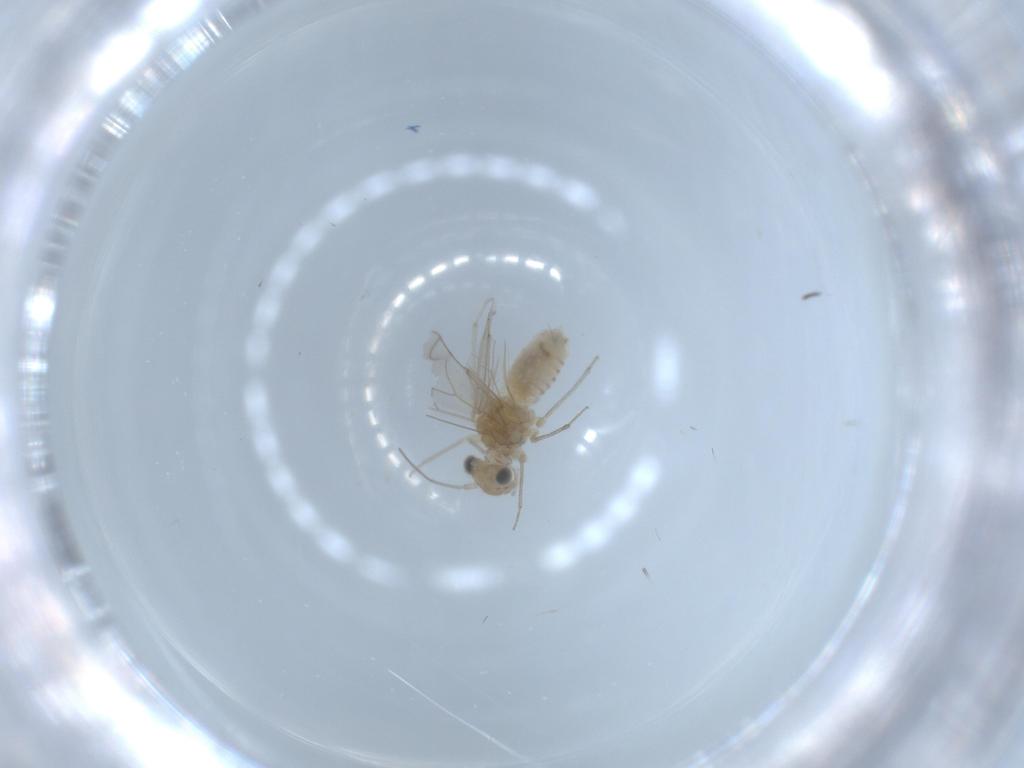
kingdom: Animalia
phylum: Arthropoda
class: Insecta
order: Psocodea
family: Lachesillidae
